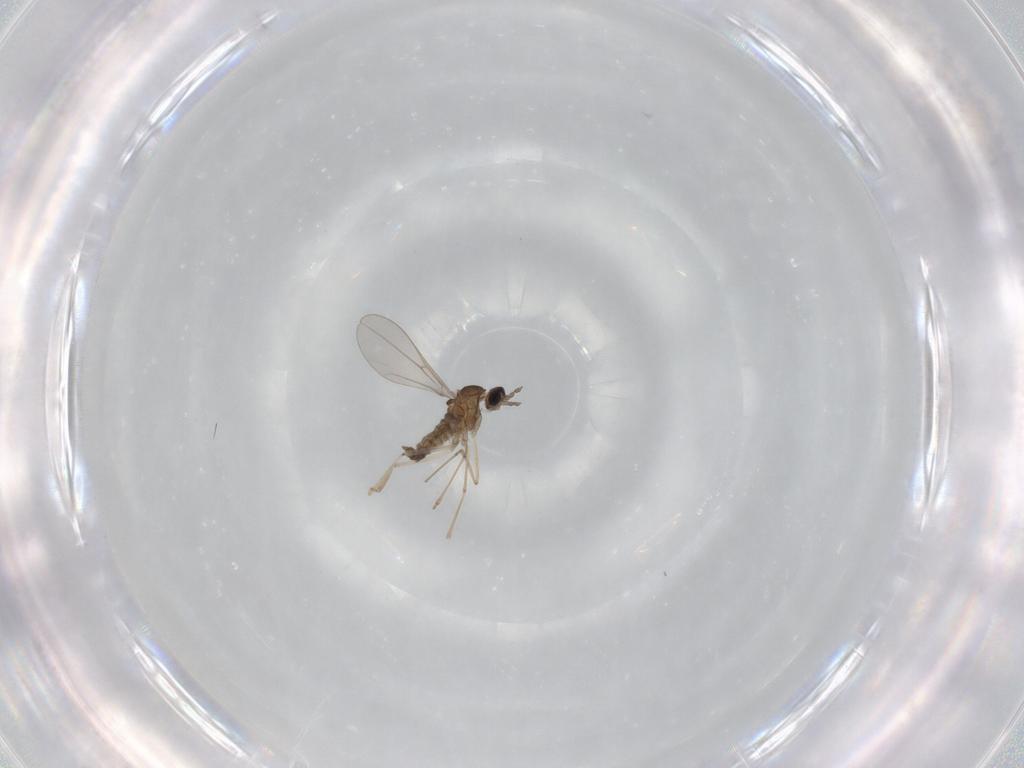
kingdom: Animalia
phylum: Arthropoda
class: Insecta
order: Diptera
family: Cecidomyiidae
